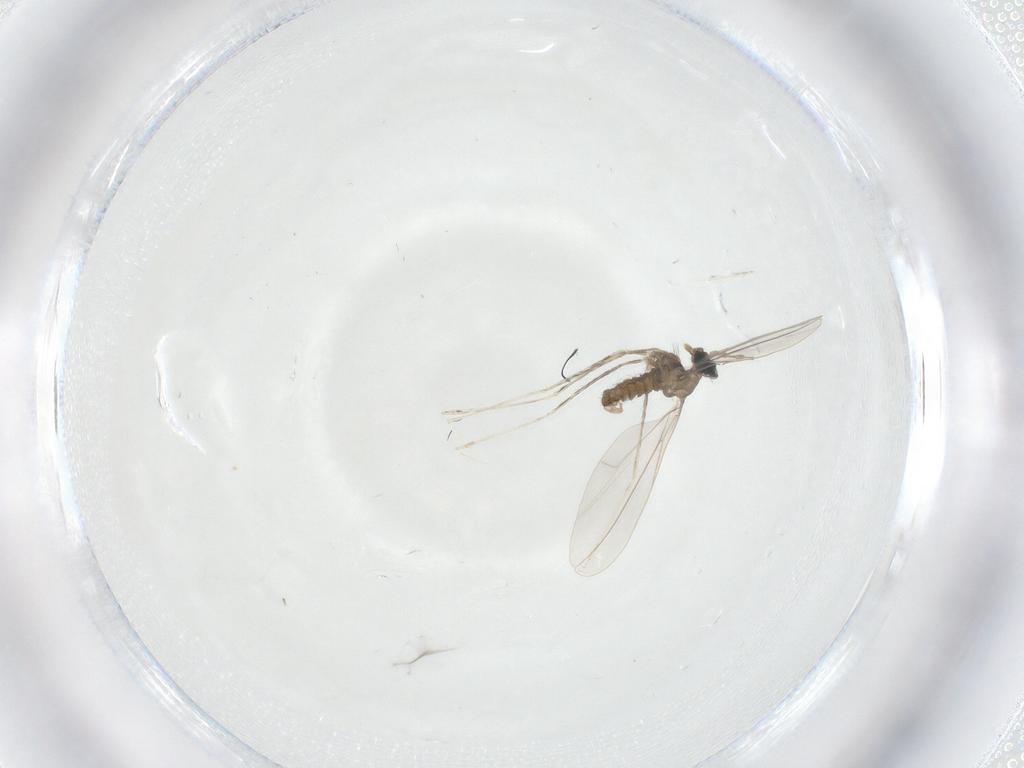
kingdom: Animalia
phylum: Arthropoda
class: Insecta
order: Diptera
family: Cecidomyiidae
